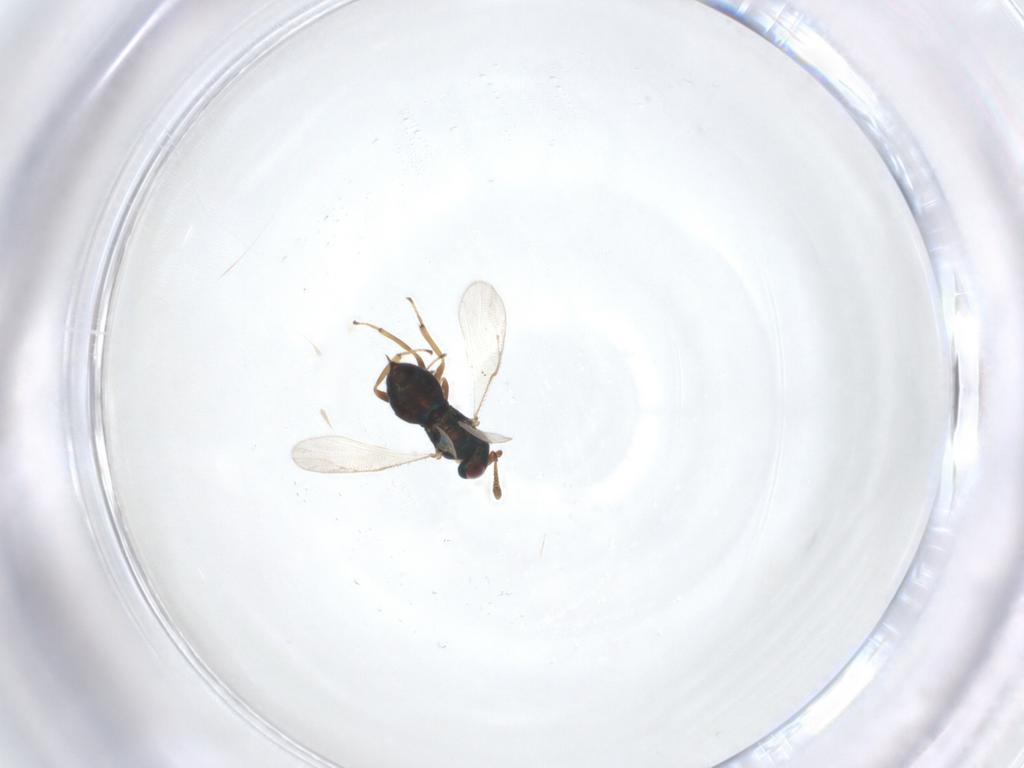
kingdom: Animalia
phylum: Arthropoda
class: Insecta
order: Hymenoptera
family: Pteromalidae
